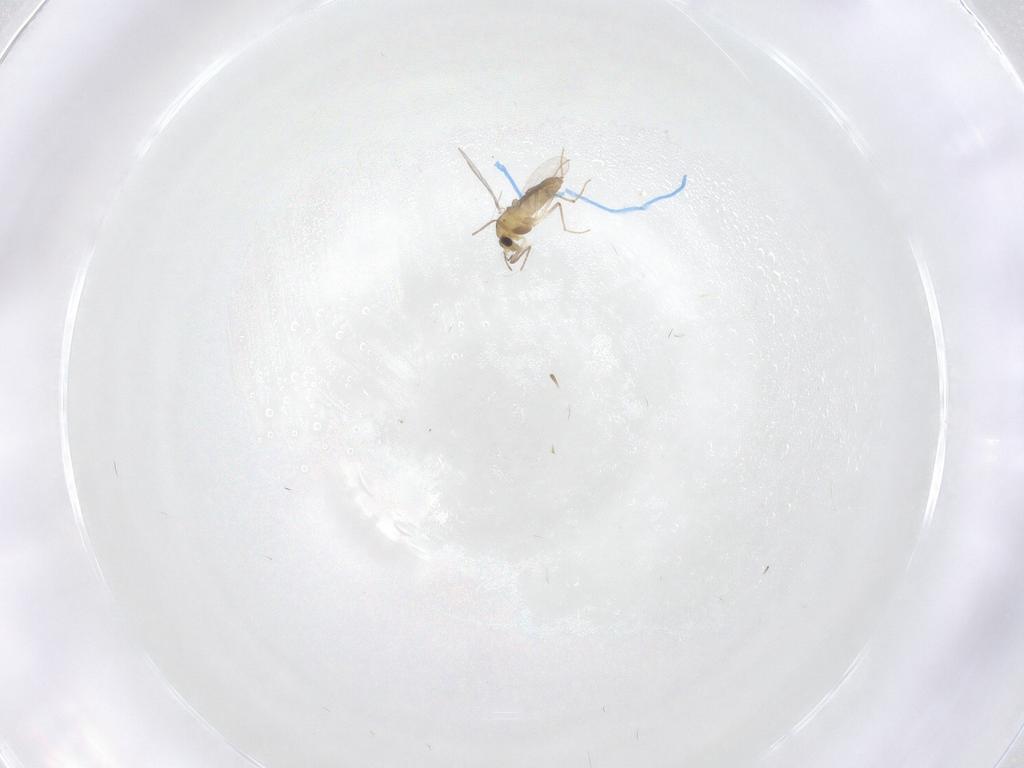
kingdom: Animalia
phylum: Arthropoda
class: Insecta
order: Diptera
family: Chironomidae
